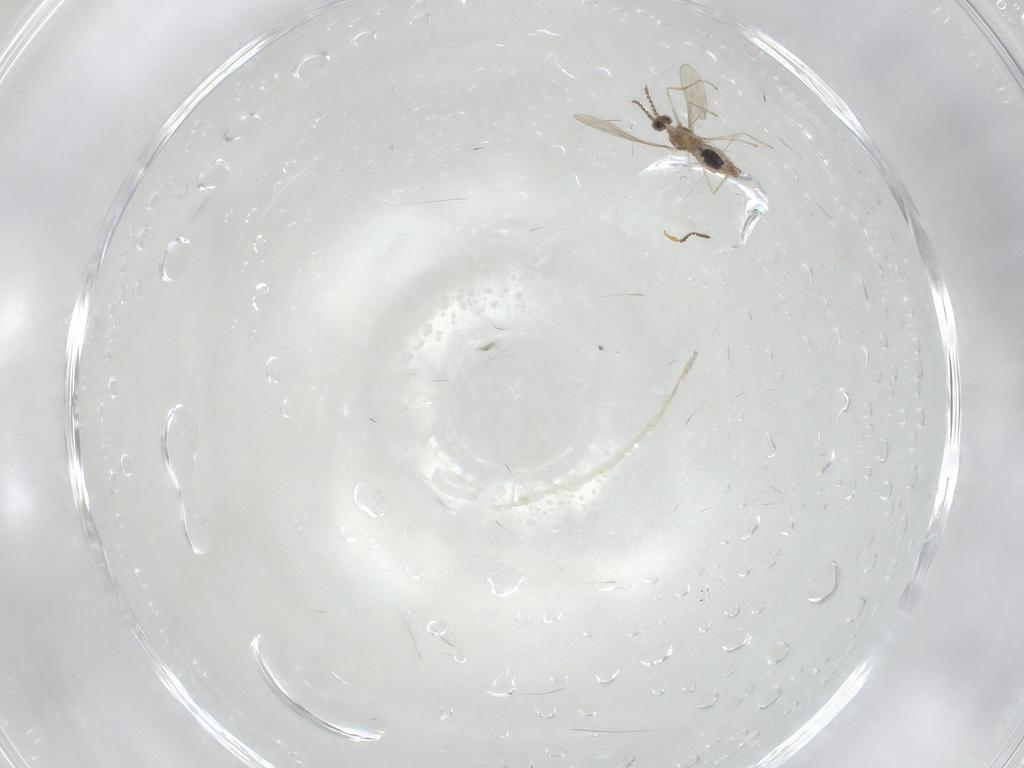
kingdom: Animalia
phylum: Arthropoda
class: Insecta
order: Diptera
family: Cecidomyiidae
